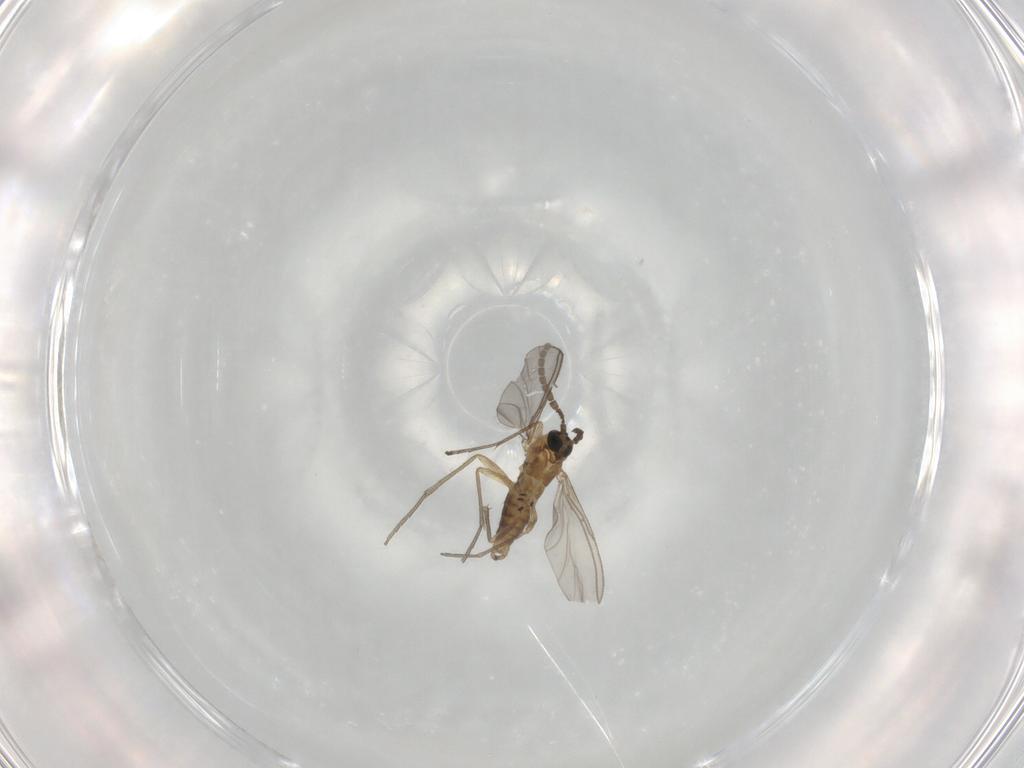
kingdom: Animalia
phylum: Arthropoda
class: Insecta
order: Diptera
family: Sciaridae
